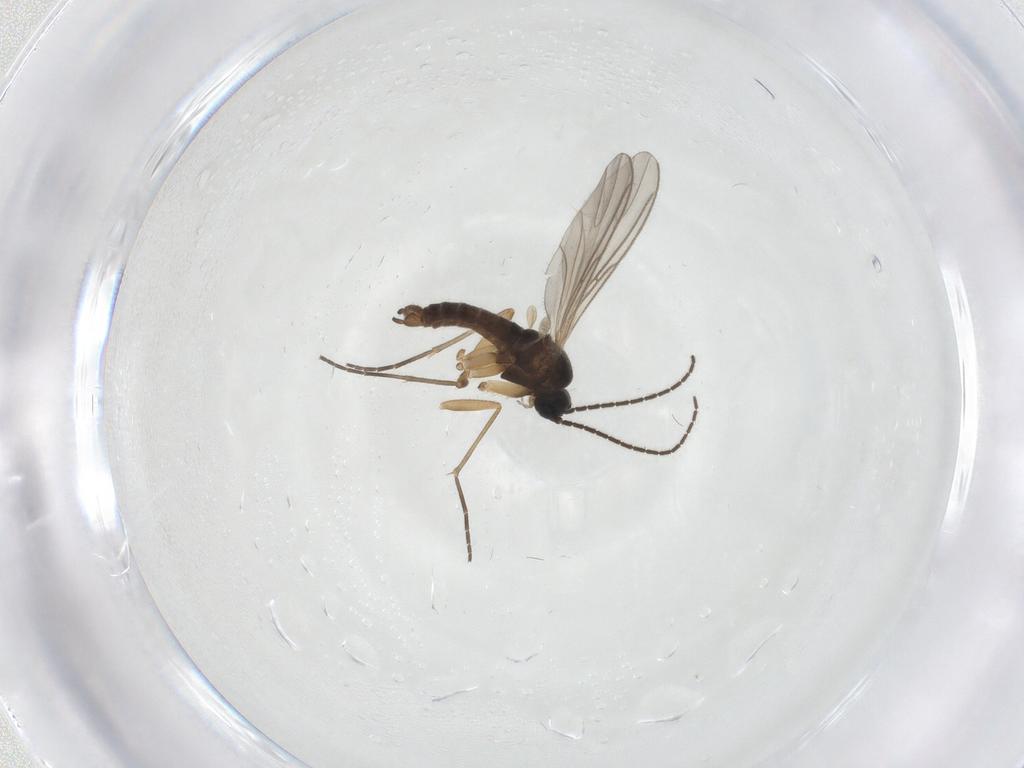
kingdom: Animalia
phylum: Arthropoda
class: Insecta
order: Diptera
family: Sciaridae
